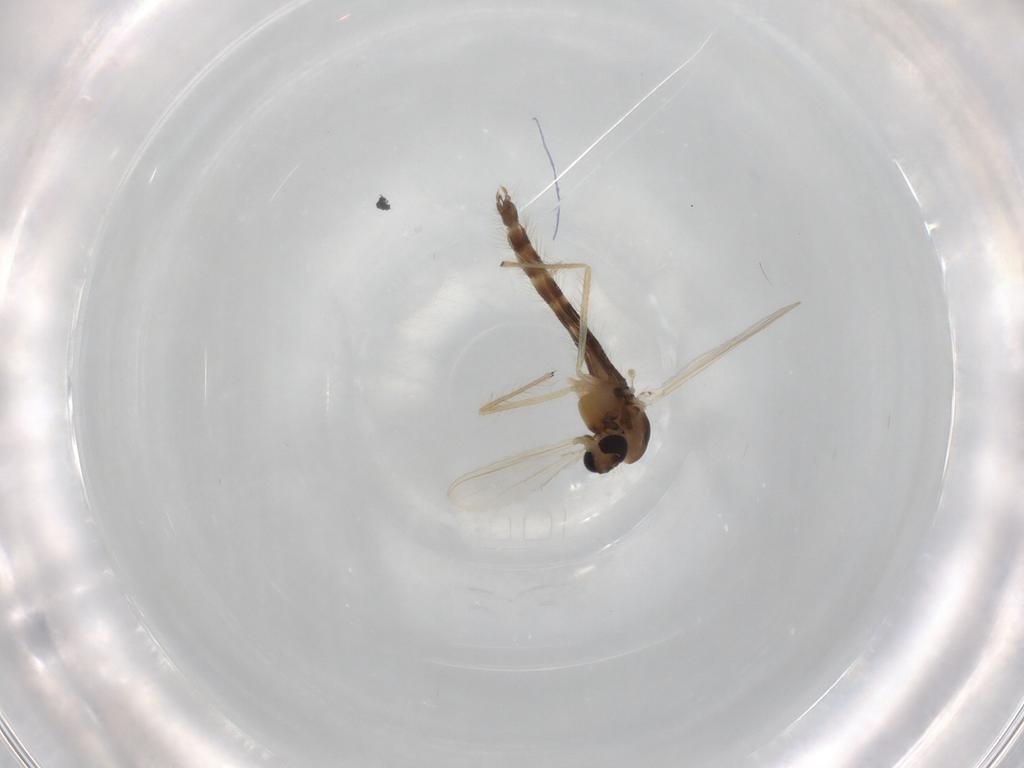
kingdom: Animalia
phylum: Arthropoda
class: Insecta
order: Diptera
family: Chironomidae
